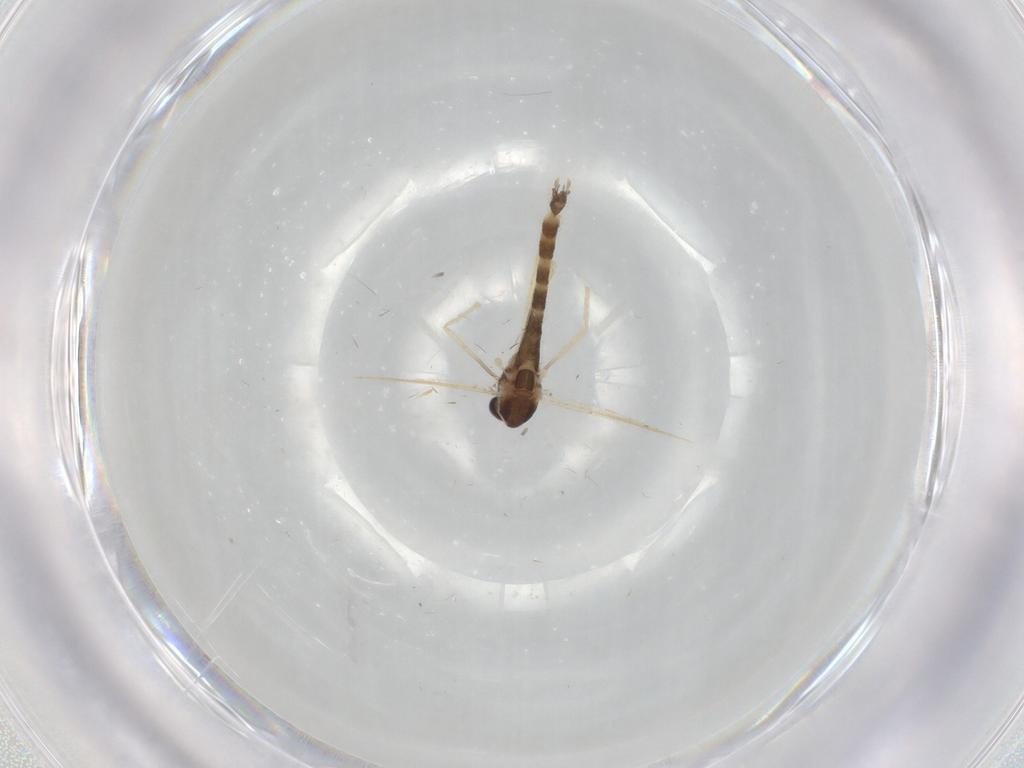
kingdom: Animalia
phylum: Arthropoda
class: Insecta
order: Diptera
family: Chironomidae
